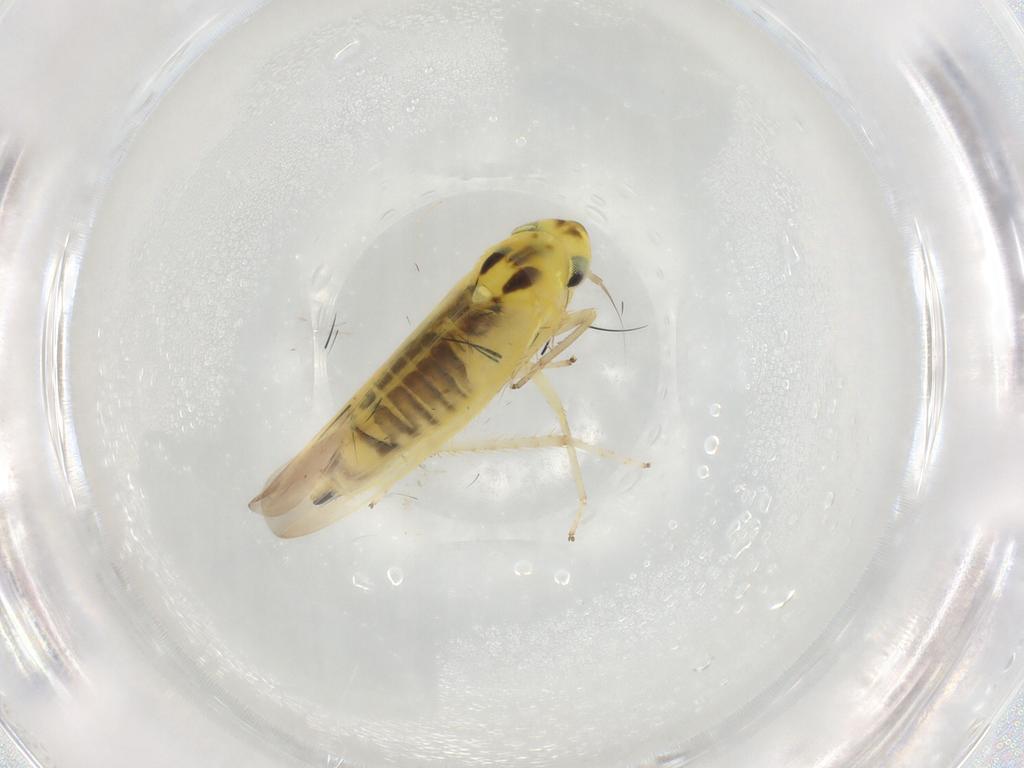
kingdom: Animalia
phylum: Arthropoda
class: Insecta
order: Hemiptera
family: Cicadellidae
